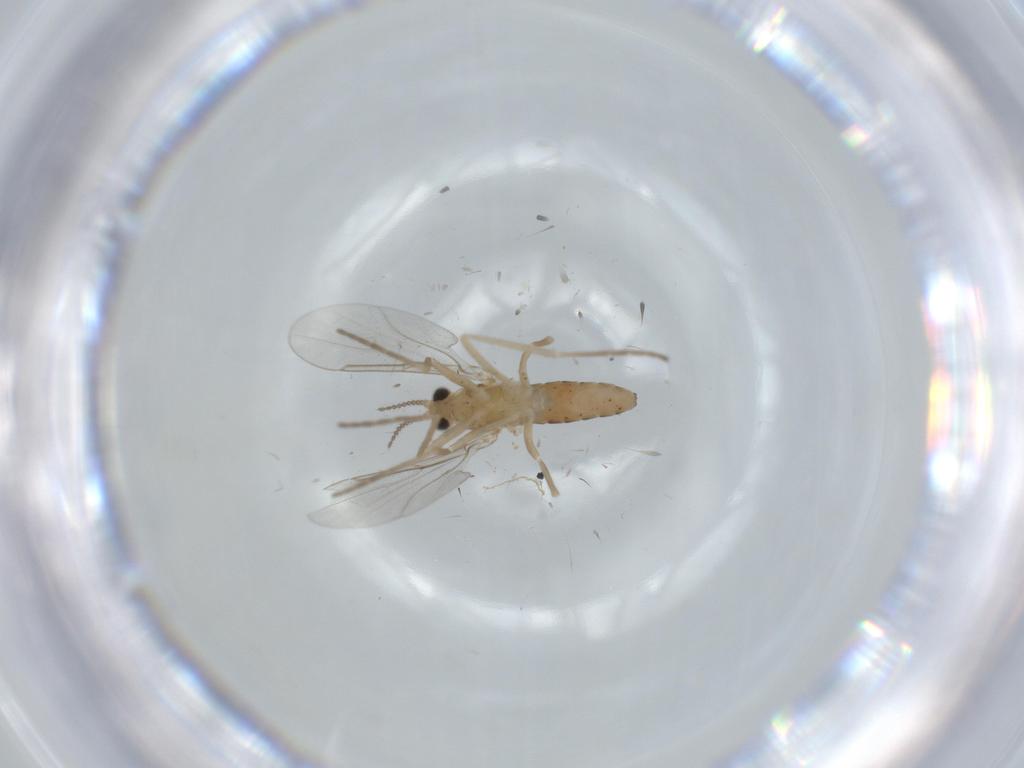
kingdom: Animalia
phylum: Arthropoda
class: Insecta
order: Diptera
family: Cecidomyiidae
